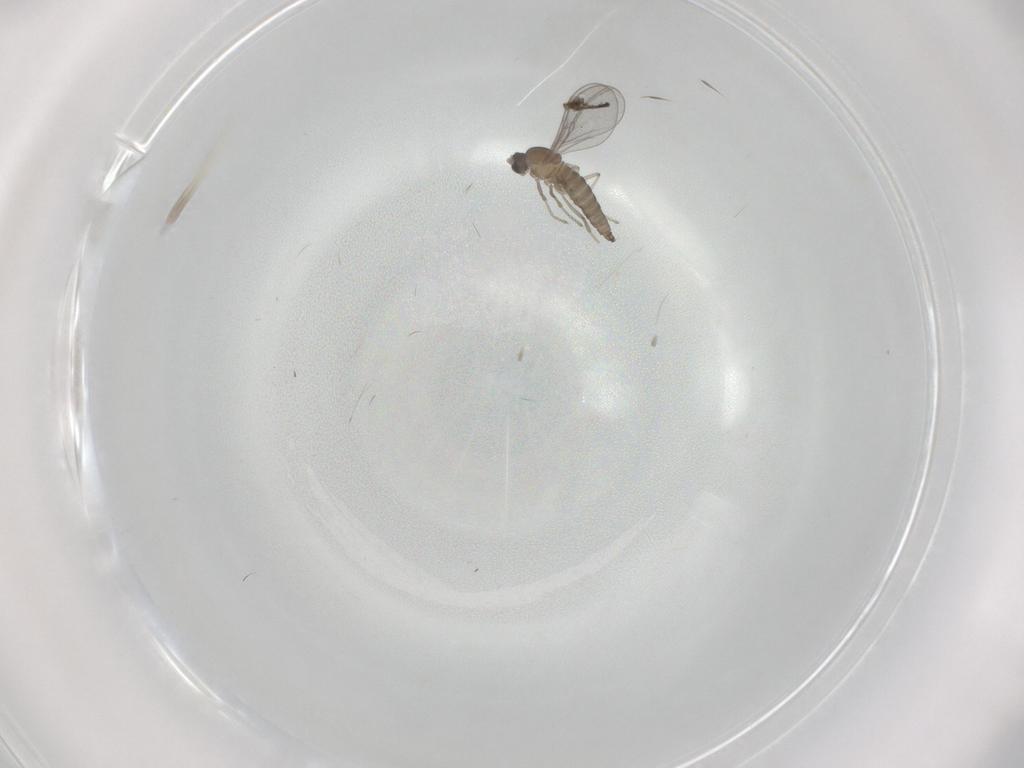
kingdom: Animalia
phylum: Arthropoda
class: Insecta
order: Diptera
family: Cecidomyiidae
